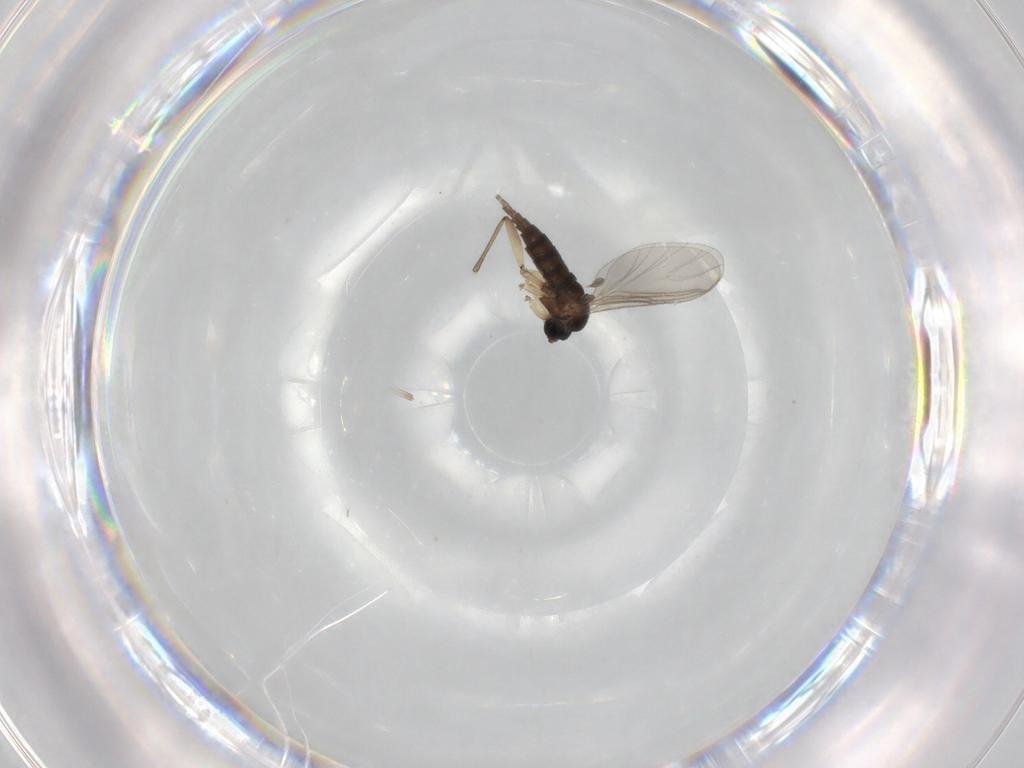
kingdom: Animalia
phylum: Arthropoda
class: Insecta
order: Diptera
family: Sciaridae
